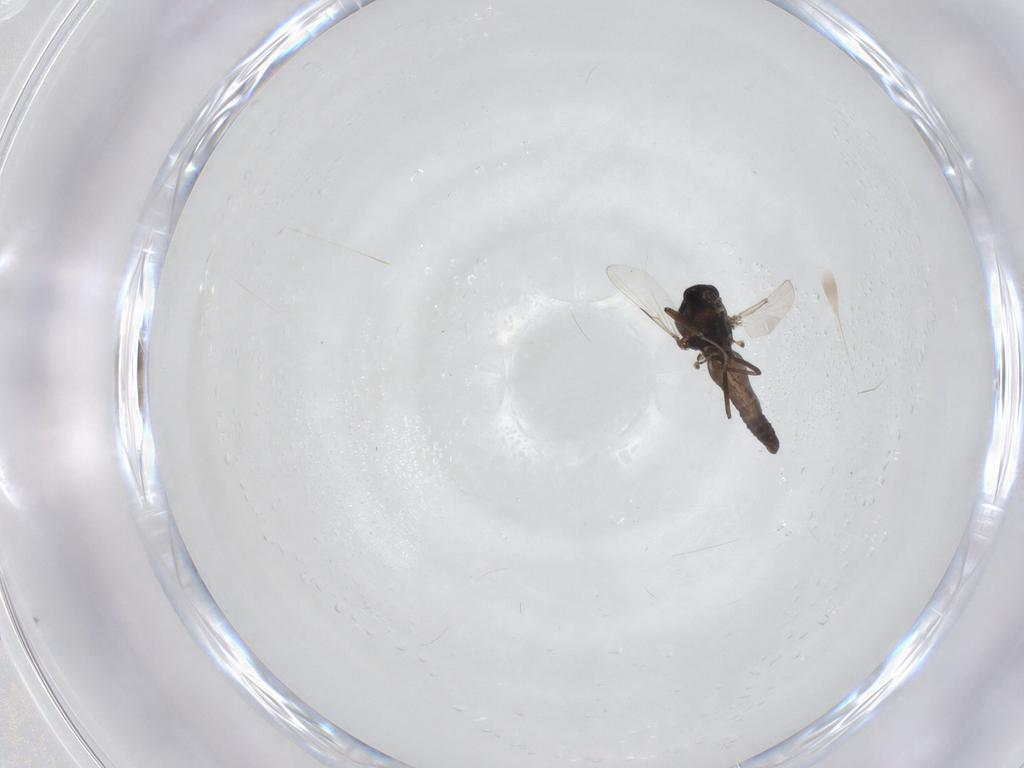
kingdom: Animalia
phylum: Arthropoda
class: Insecta
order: Diptera
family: Ceratopogonidae
